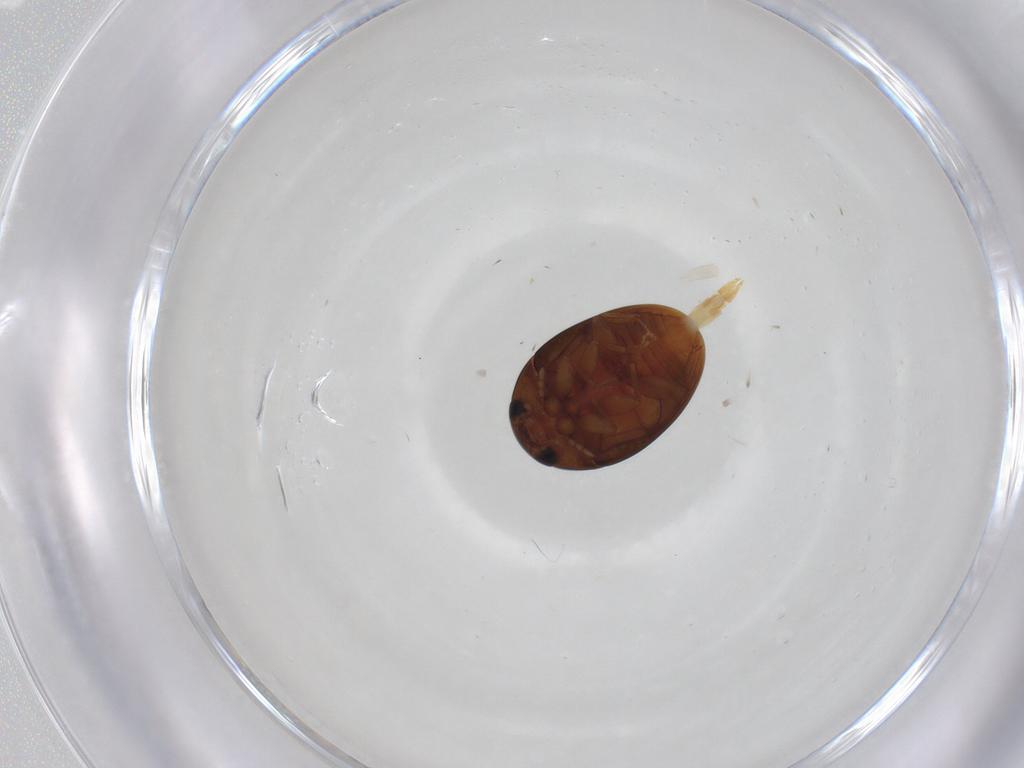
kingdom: Animalia
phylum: Arthropoda
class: Insecta
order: Coleoptera
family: Phalacridae
